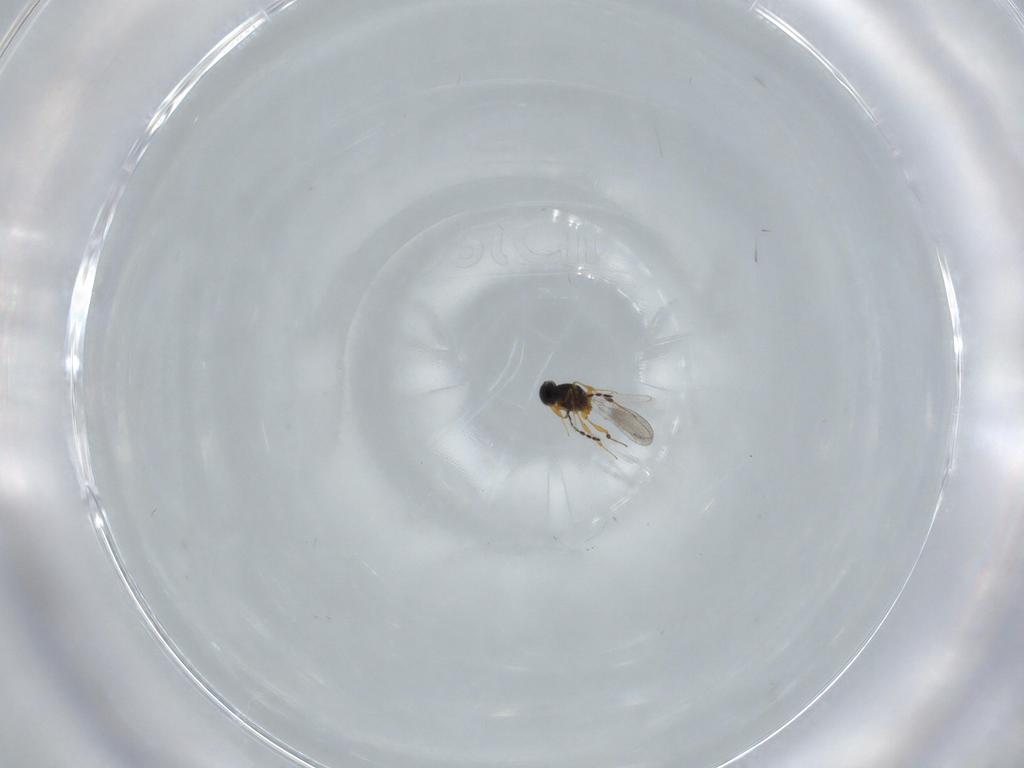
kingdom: Animalia
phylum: Arthropoda
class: Insecta
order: Hymenoptera
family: Platygastridae
